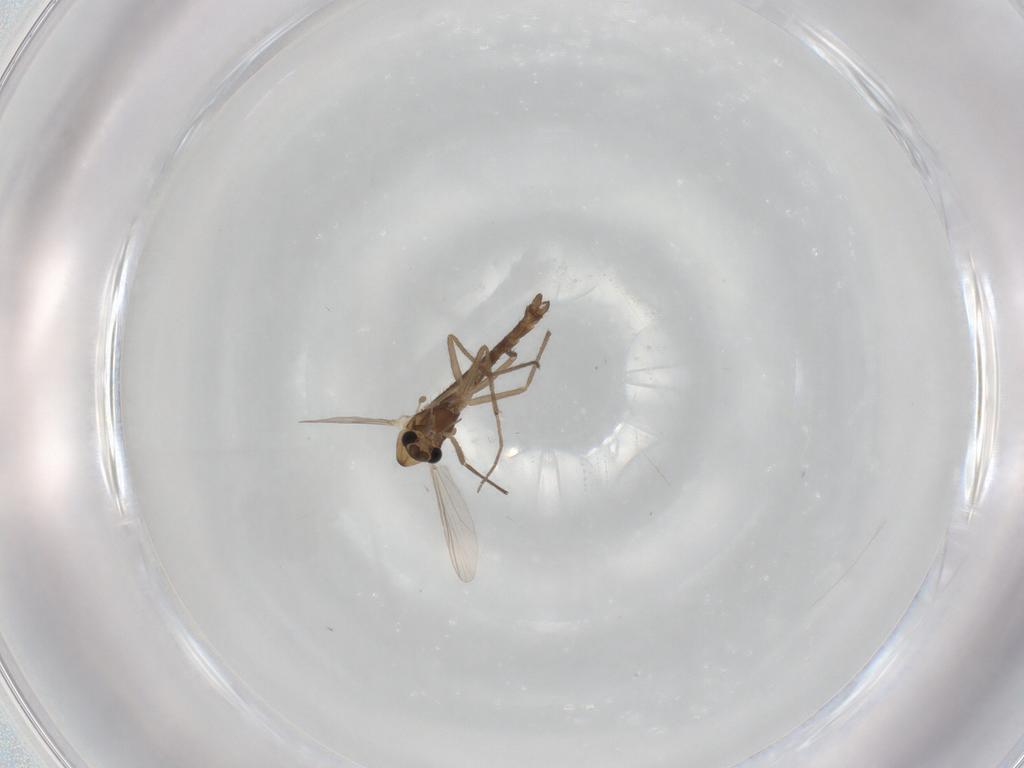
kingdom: Animalia
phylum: Arthropoda
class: Insecta
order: Diptera
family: Chironomidae
